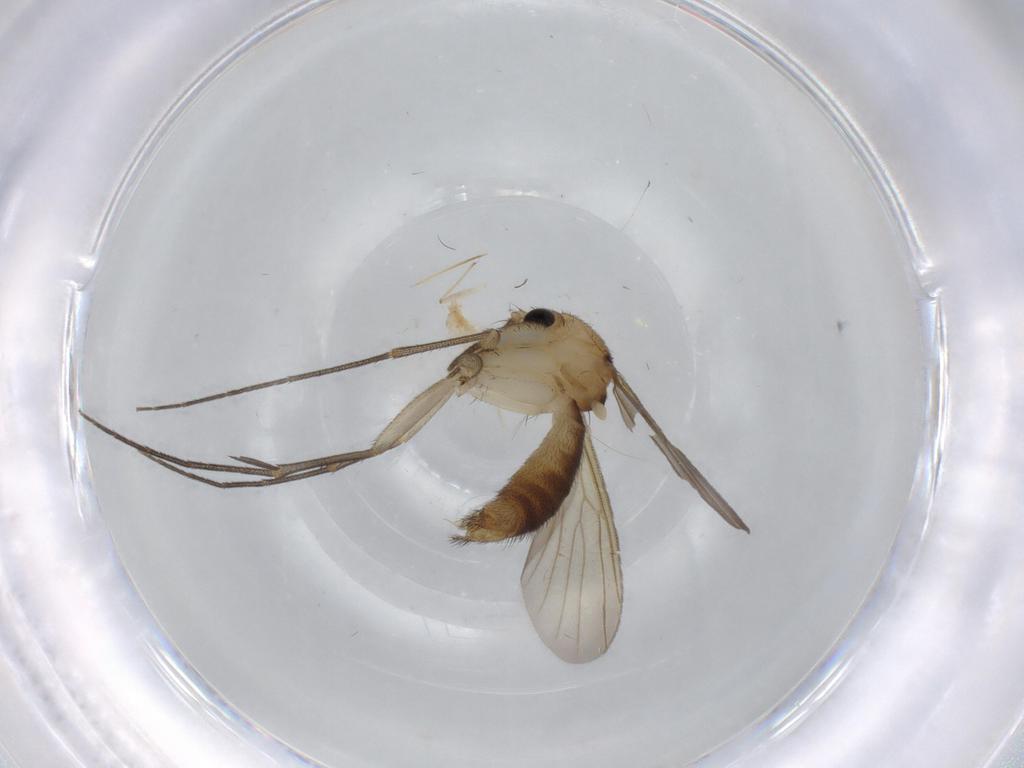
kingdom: Animalia
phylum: Arthropoda
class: Insecta
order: Diptera
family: Mycetophilidae
